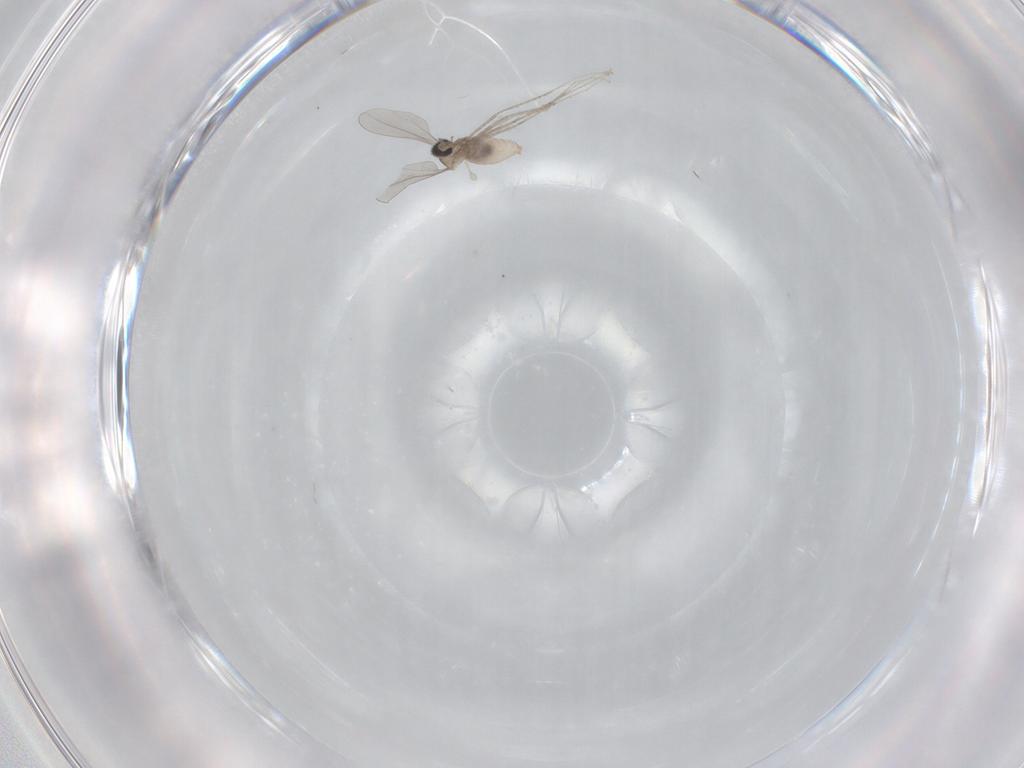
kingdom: Animalia
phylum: Arthropoda
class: Insecta
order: Diptera
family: Cecidomyiidae
